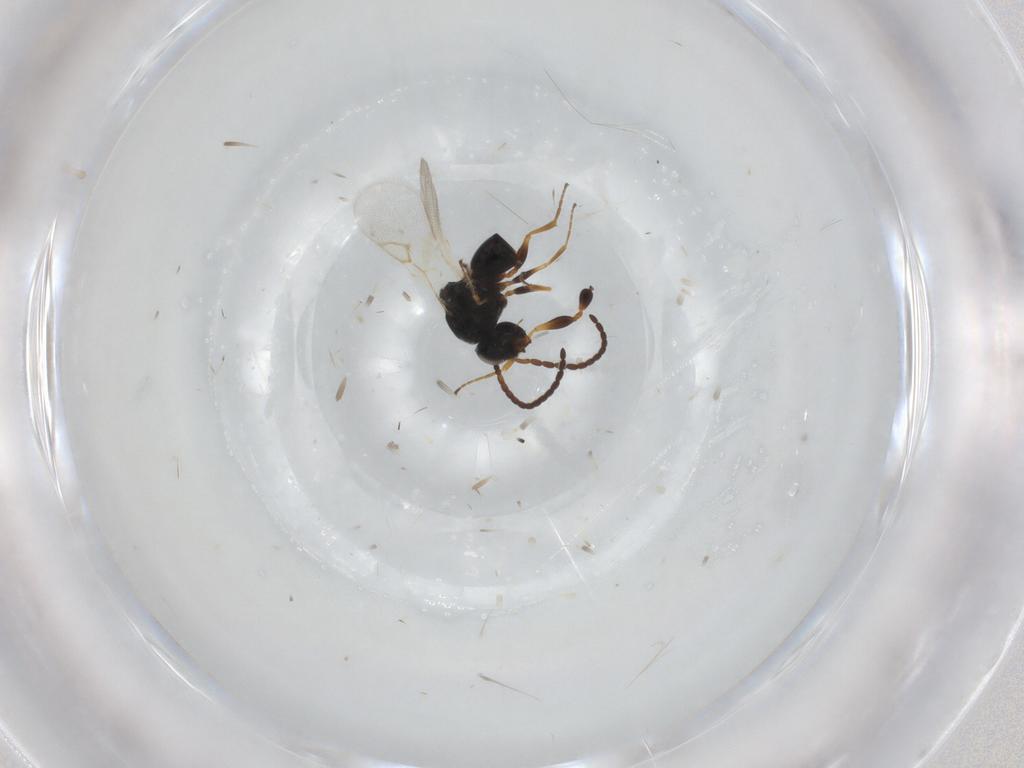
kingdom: Animalia
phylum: Arthropoda
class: Insecta
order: Hymenoptera
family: Figitidae
